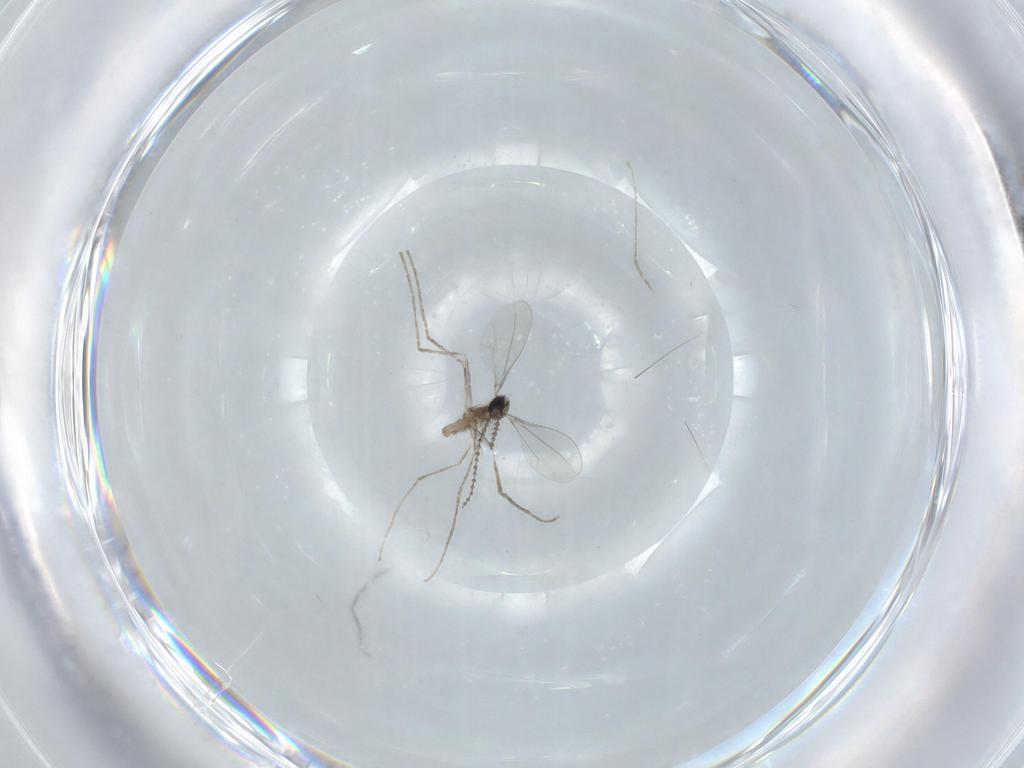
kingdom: Animalia
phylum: Arthropoda
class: Insecta
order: Diptera
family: Cecidomyiidae
